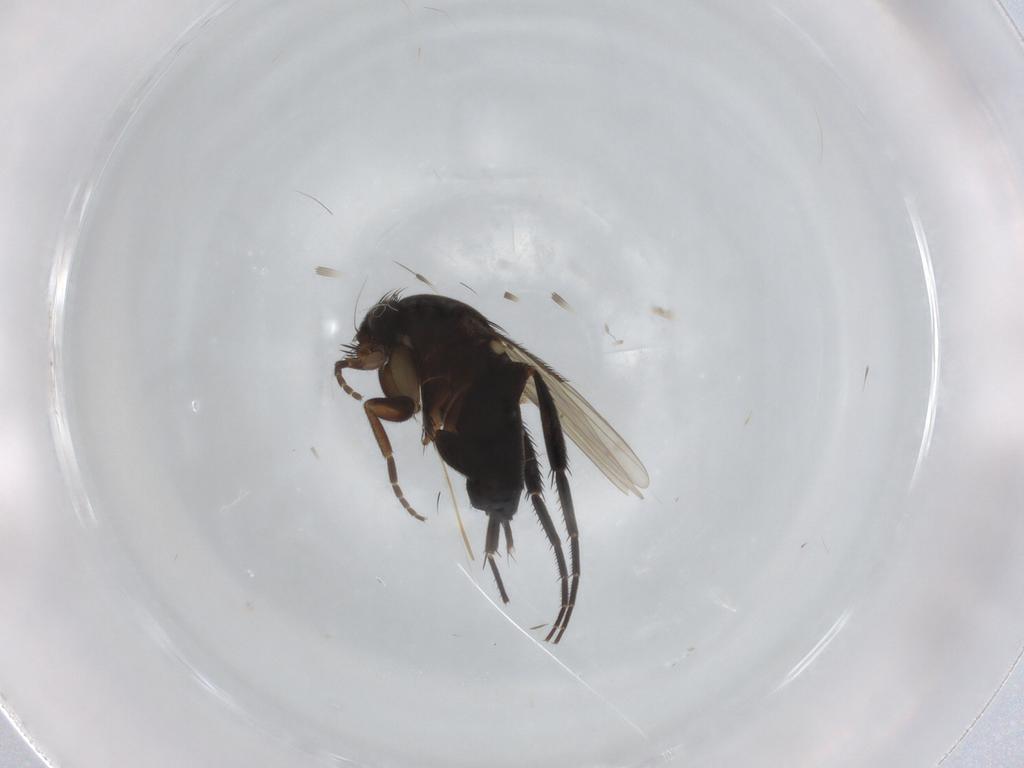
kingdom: Animalia
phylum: Arthropoda
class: Insecta
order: Diptera
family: Phoridae
